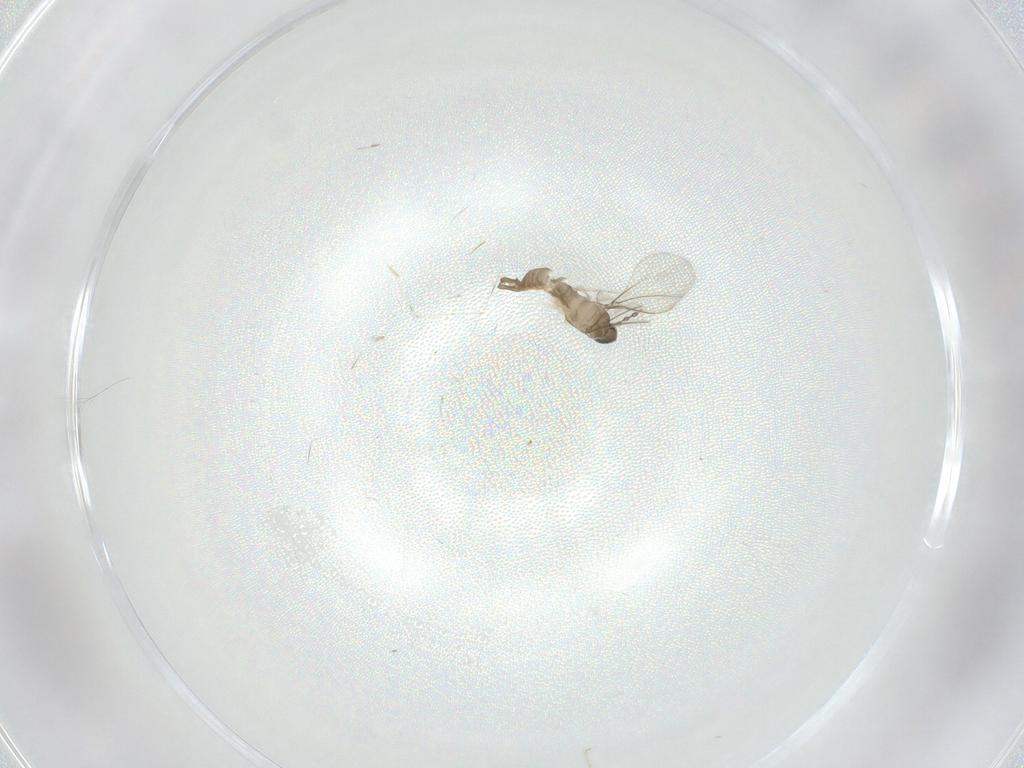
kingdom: Animalia
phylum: Arthropoda
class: Insecta
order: Diptera
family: Cecidomyiidae
